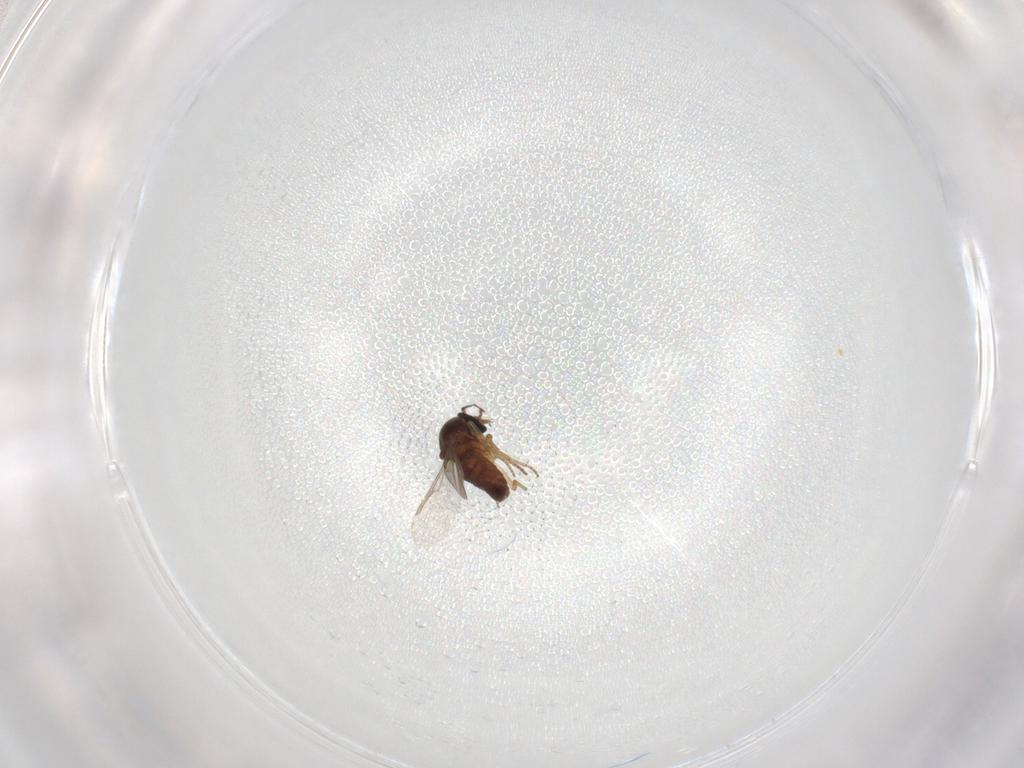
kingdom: Animalia
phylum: Arthropoda
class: Insecta
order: Diptera
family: Ceratopogonidae
